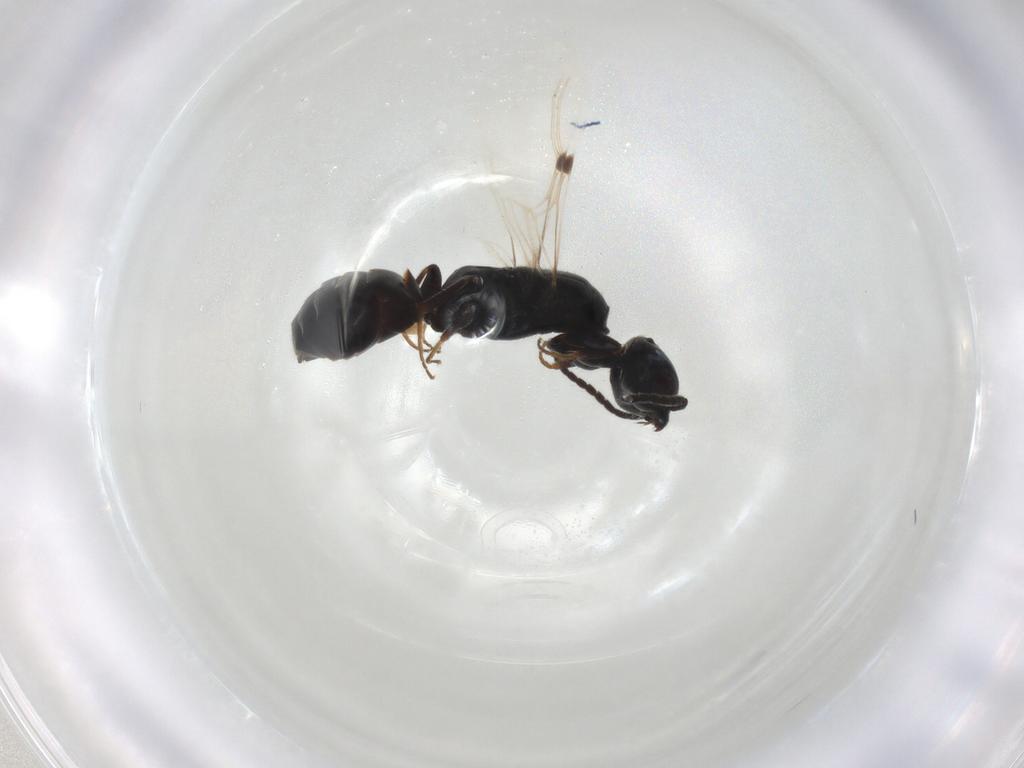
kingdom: Animalia
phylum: Arthropoda
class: Insecta
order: Hymenoptera
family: Bethylidae
